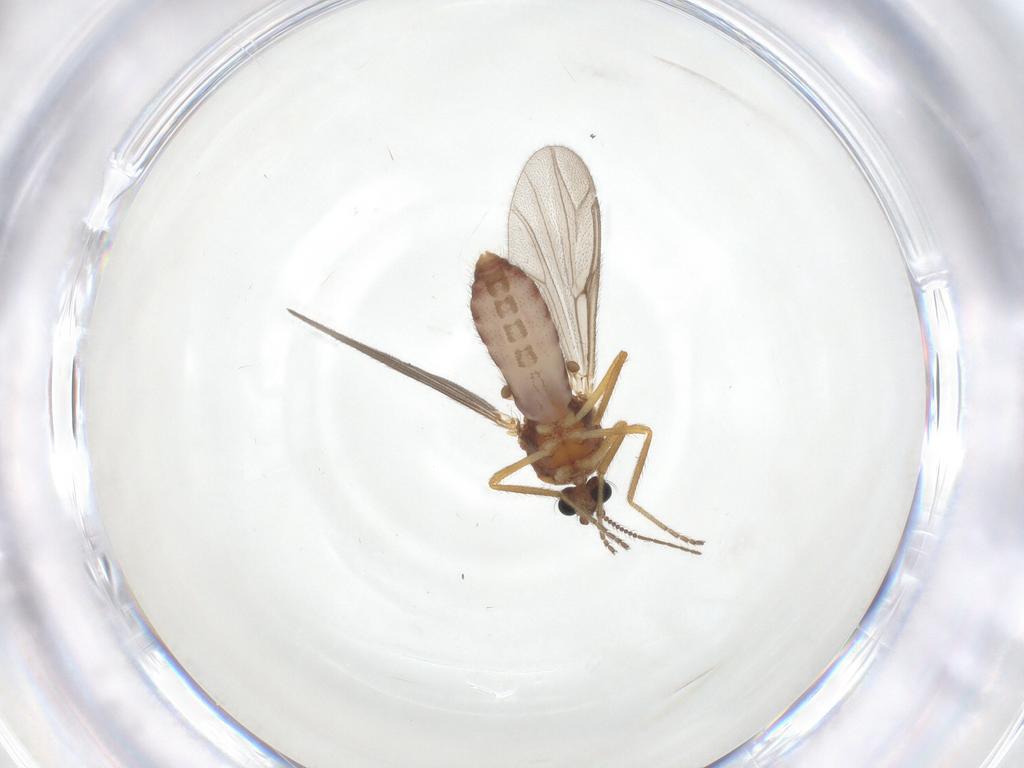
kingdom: Animalia
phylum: Arthropoda
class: Insecta
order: Diptera
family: Ceratopogonidae
